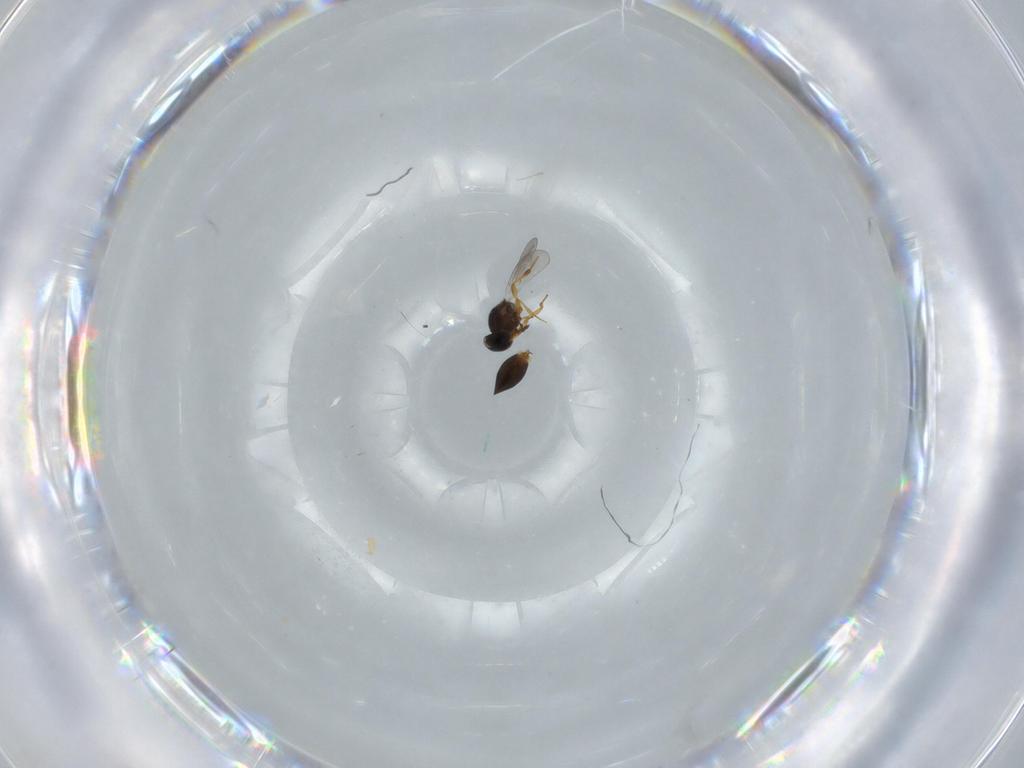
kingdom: Animalia
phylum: Arthropoda
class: Insecta
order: Hymenoptera
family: Platygastridae
